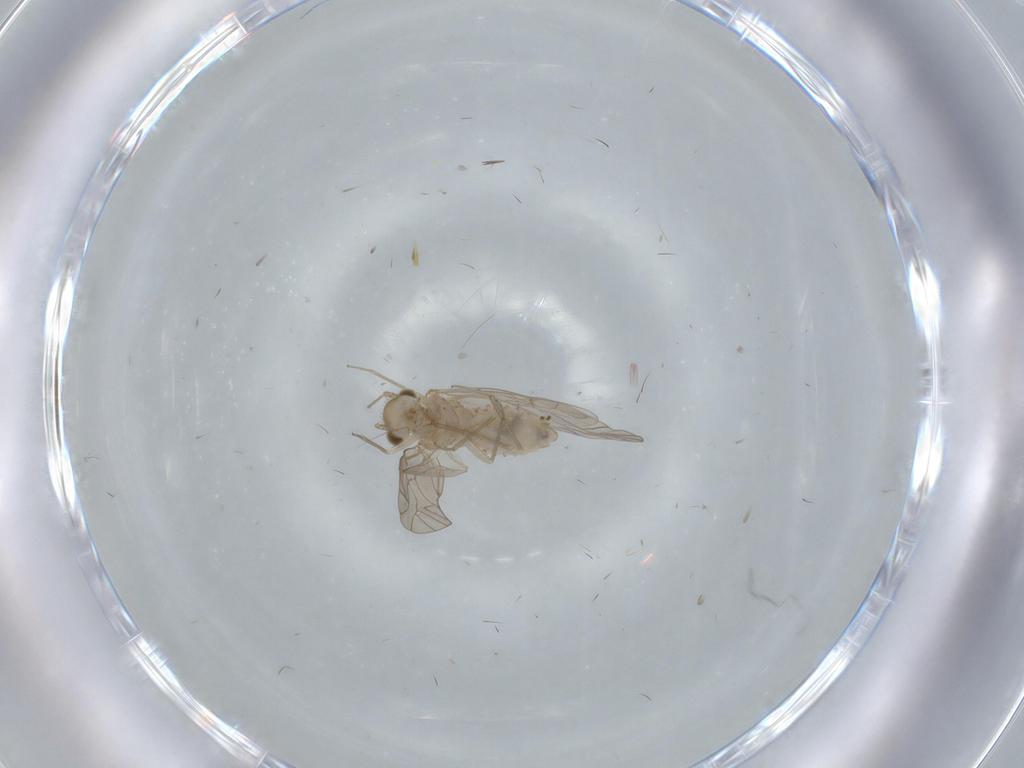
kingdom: Animalia
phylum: Arthropoda
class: Insecta
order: Psocodea
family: Lachesillidae
